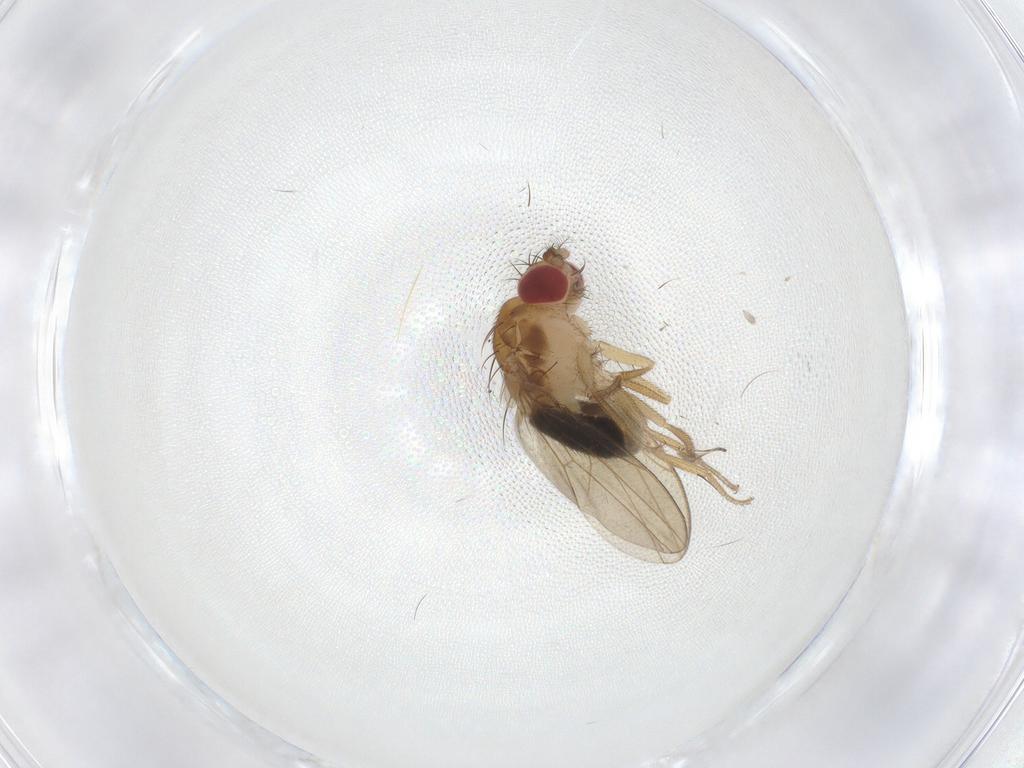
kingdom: Animalia
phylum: Arthropoda
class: Insecta
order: Diptera
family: Drosophilidae
